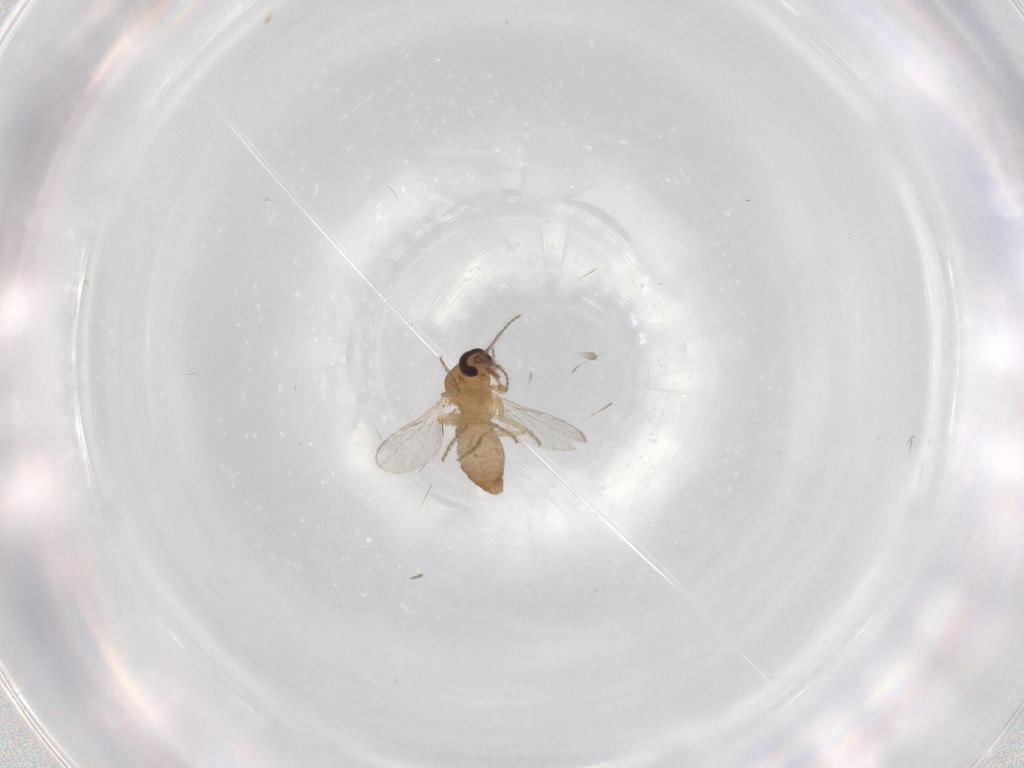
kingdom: Animalia
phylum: Arthropoda
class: Insecta
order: Diptera
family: Ceratopogonidae
